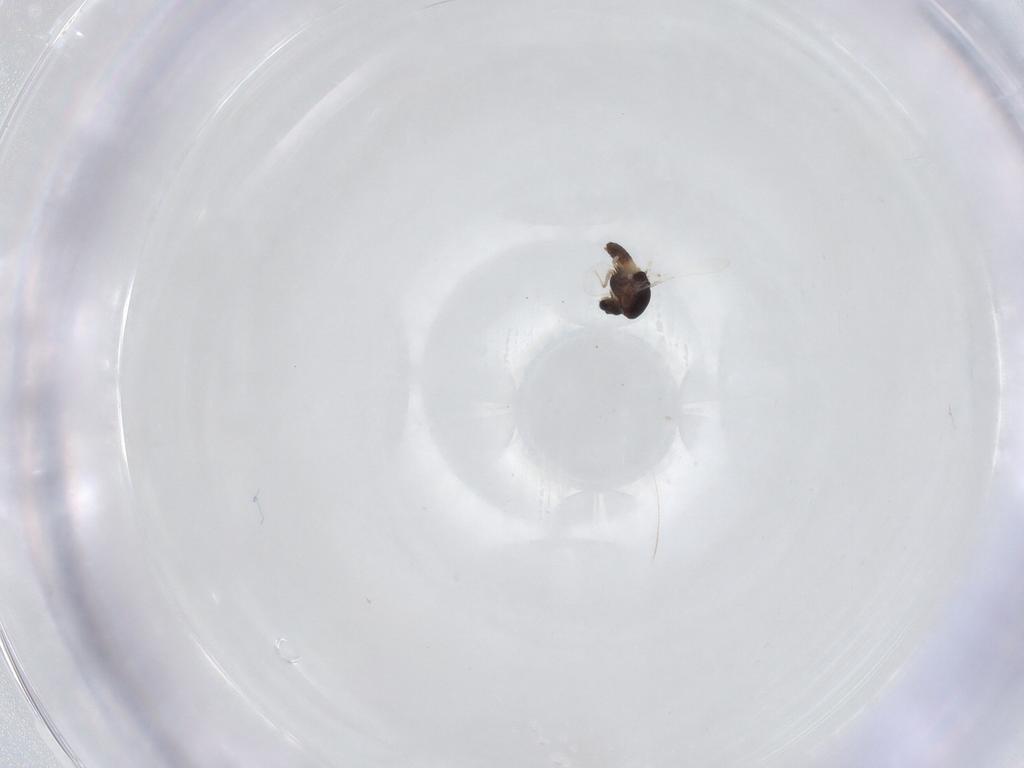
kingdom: Animalia
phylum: Arthropoda
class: Insecta
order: Diptera
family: Chironomidae
